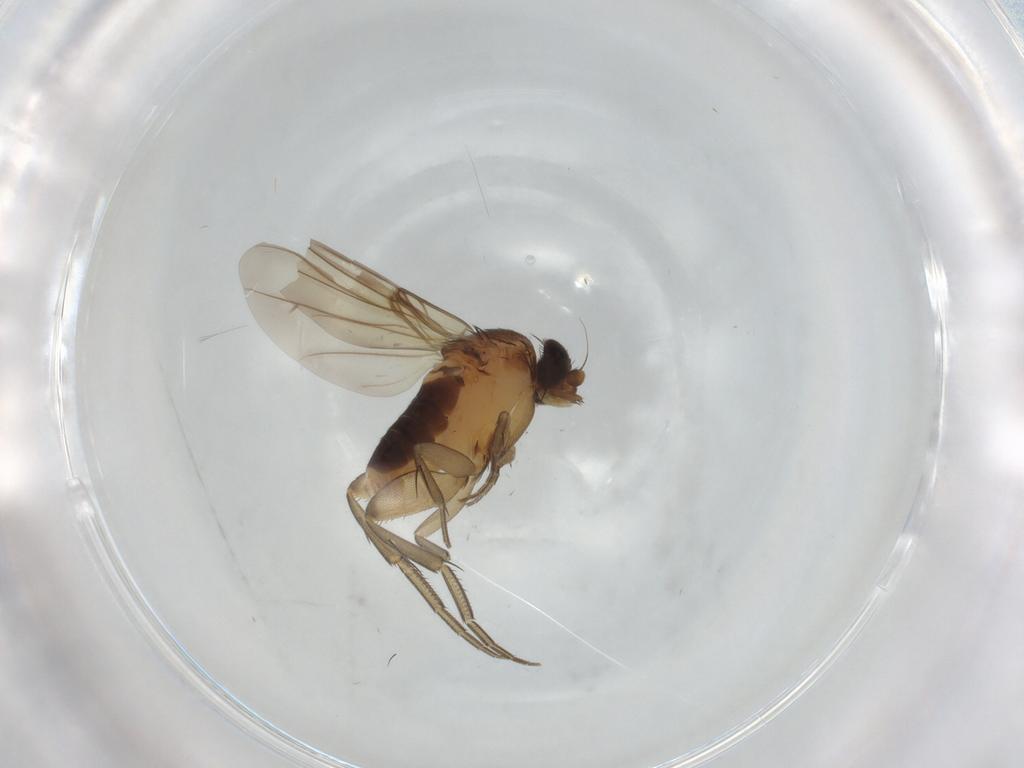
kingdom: Animalia
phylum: Arthropoda
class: Insecta
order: Diptera
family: Phoridae
